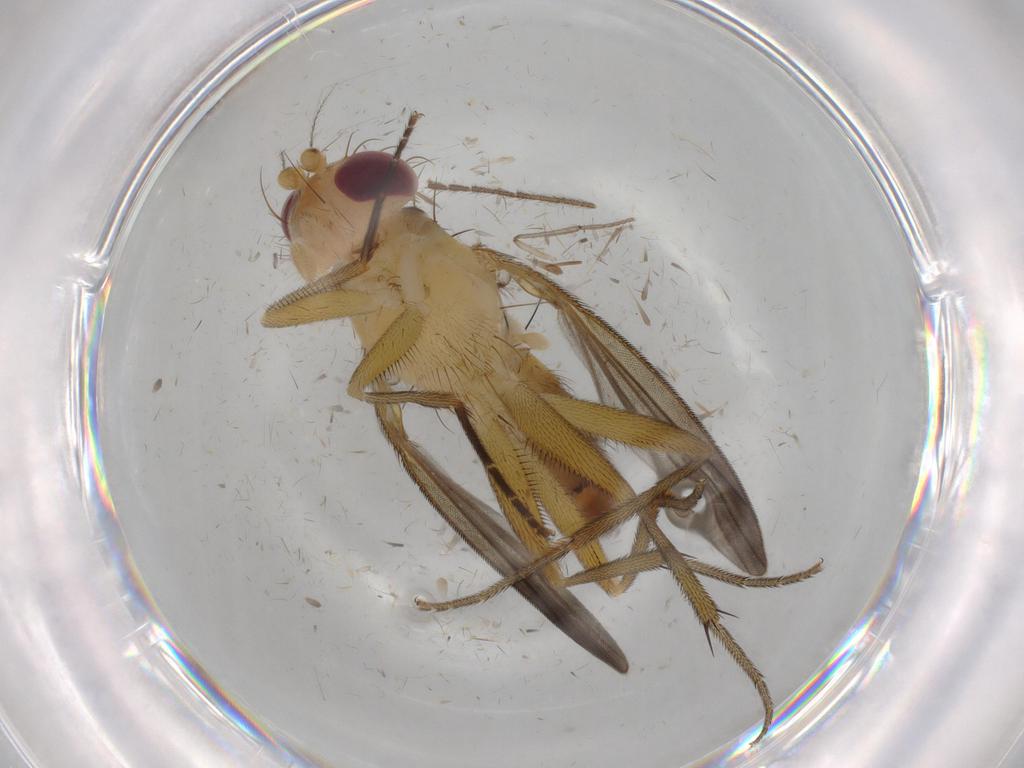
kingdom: Animalia
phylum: Arthropoda
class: Insecta
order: Diptera
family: Clusiidae
